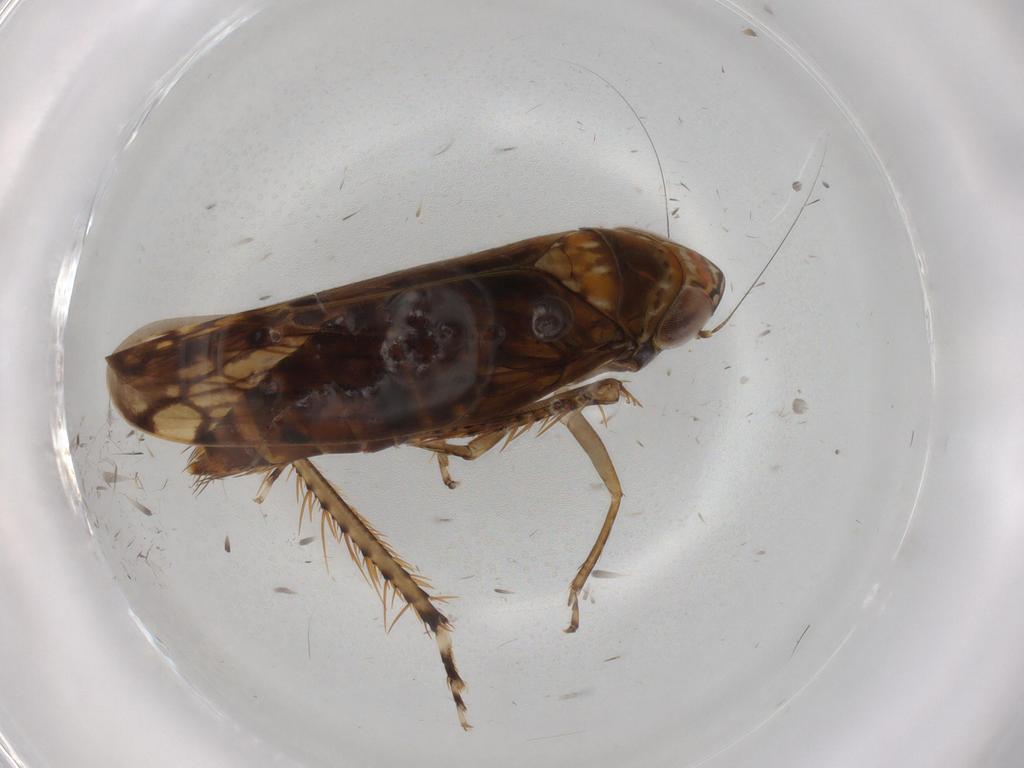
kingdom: Animalia
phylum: Arthropoda
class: Insecta
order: Hemiptera
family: Cicadellidae
